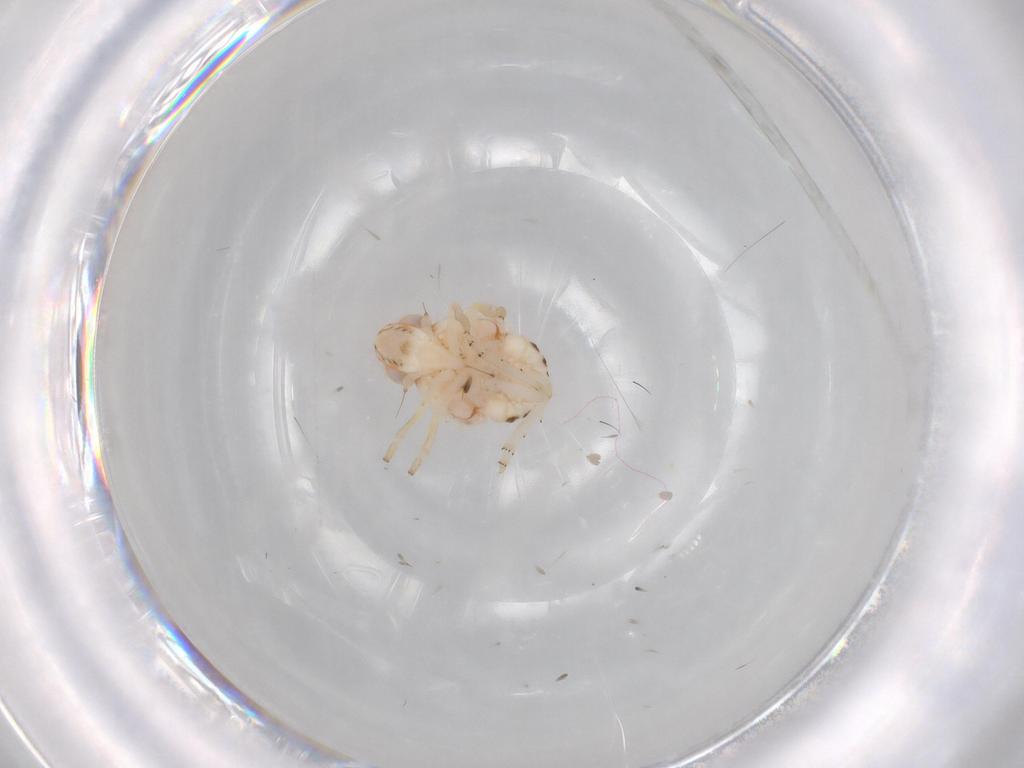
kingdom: Animalia
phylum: Arthropoda
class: Insecta
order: Hemiptera
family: Nogodinidae
